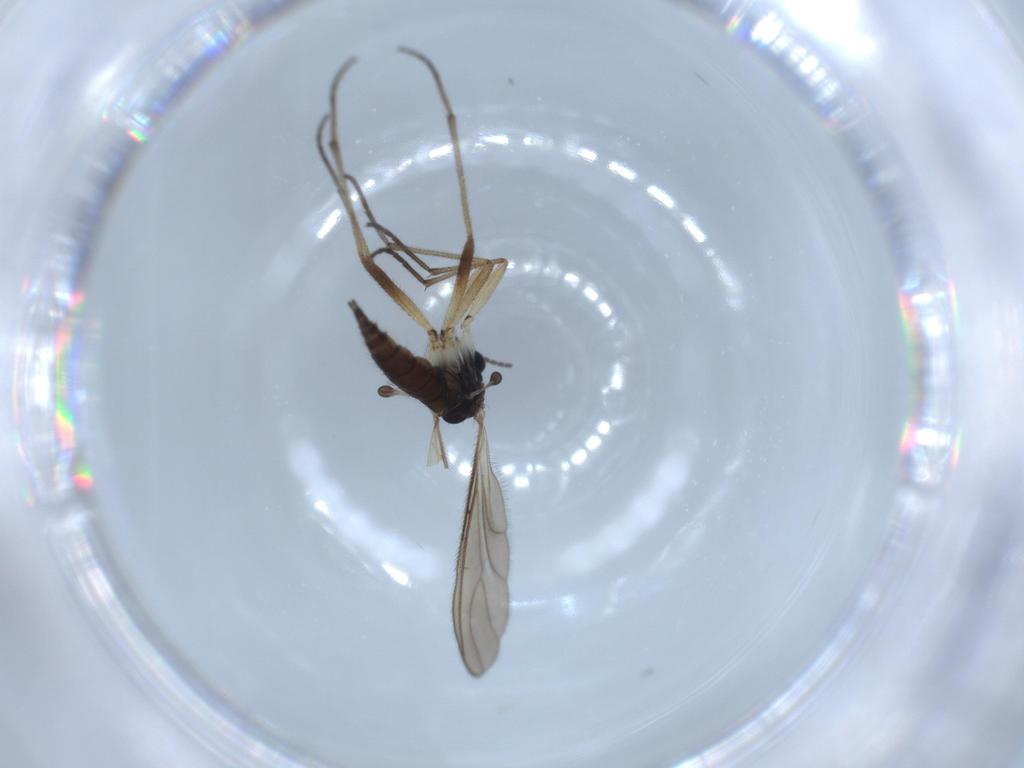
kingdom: Animalia
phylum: Arthropoda
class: Insecta
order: Diptera
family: Sciaridae
